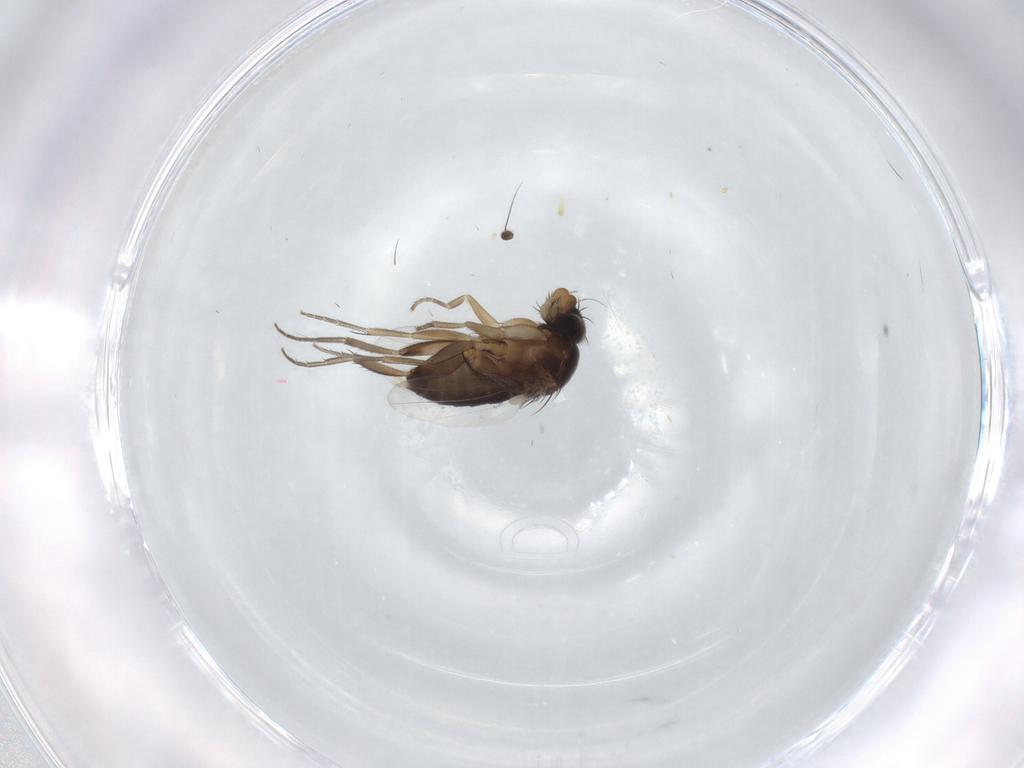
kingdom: Animalia
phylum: Arthropoda
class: Insecta
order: Diptera
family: Phoridae
